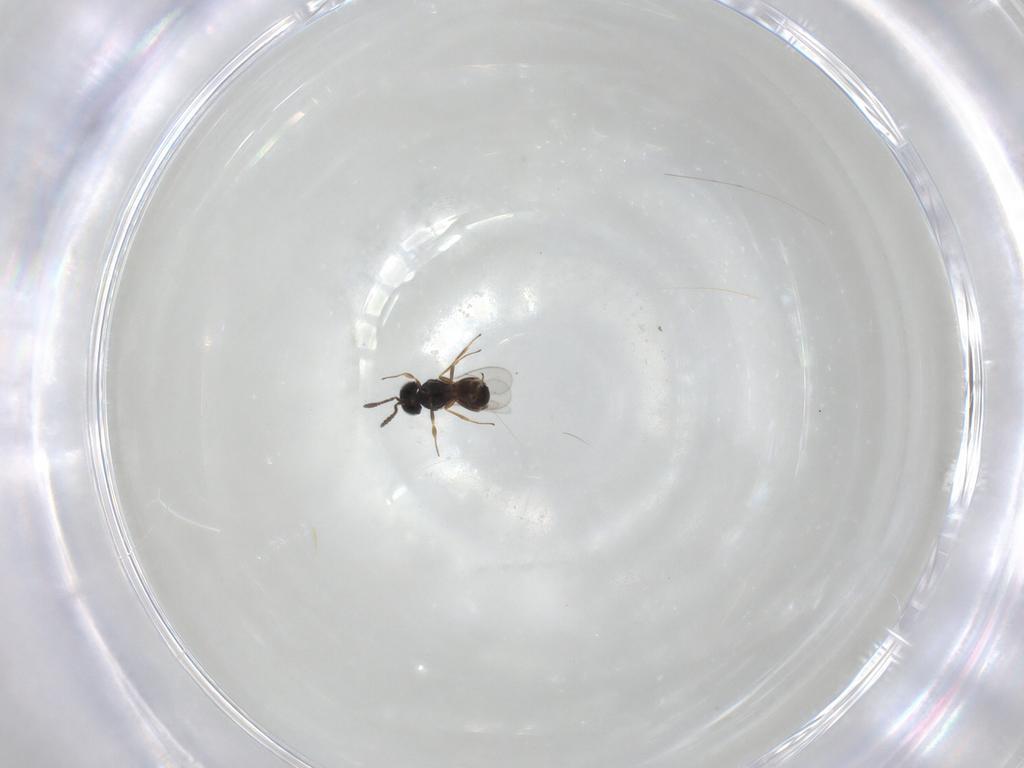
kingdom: Animalia
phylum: Arthropoda
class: Insecta
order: Hymenoptera
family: Scelionidae
